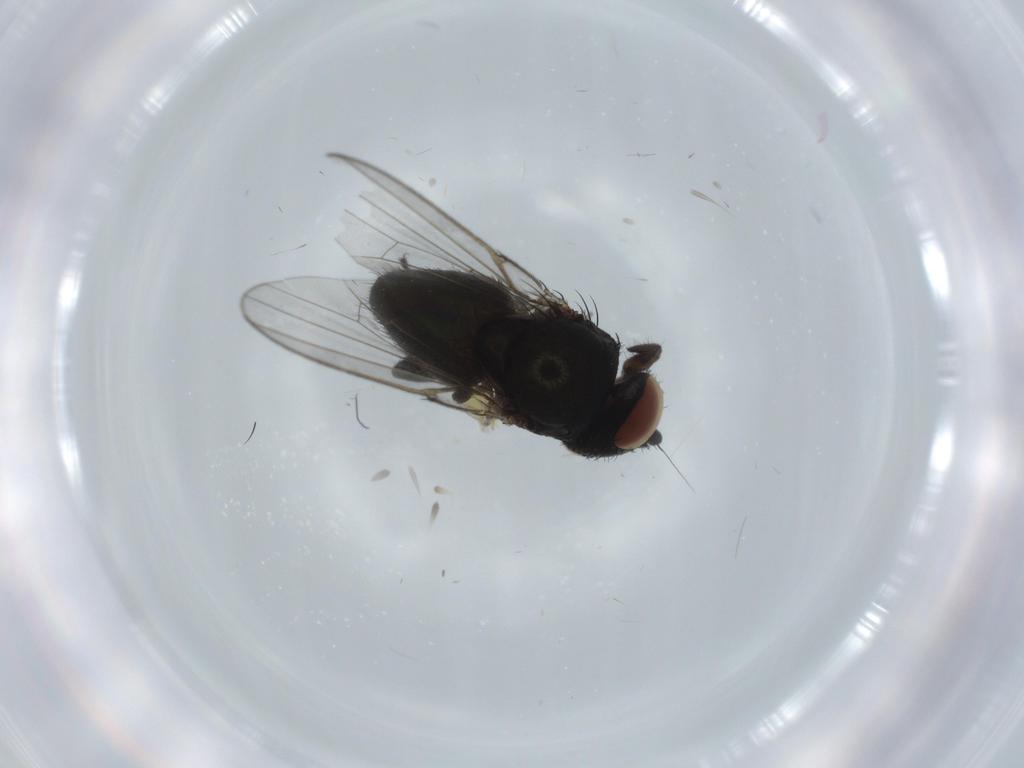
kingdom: Animalia
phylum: Arthropoda
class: Insecta
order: Diptera
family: Cecidomyiidae
